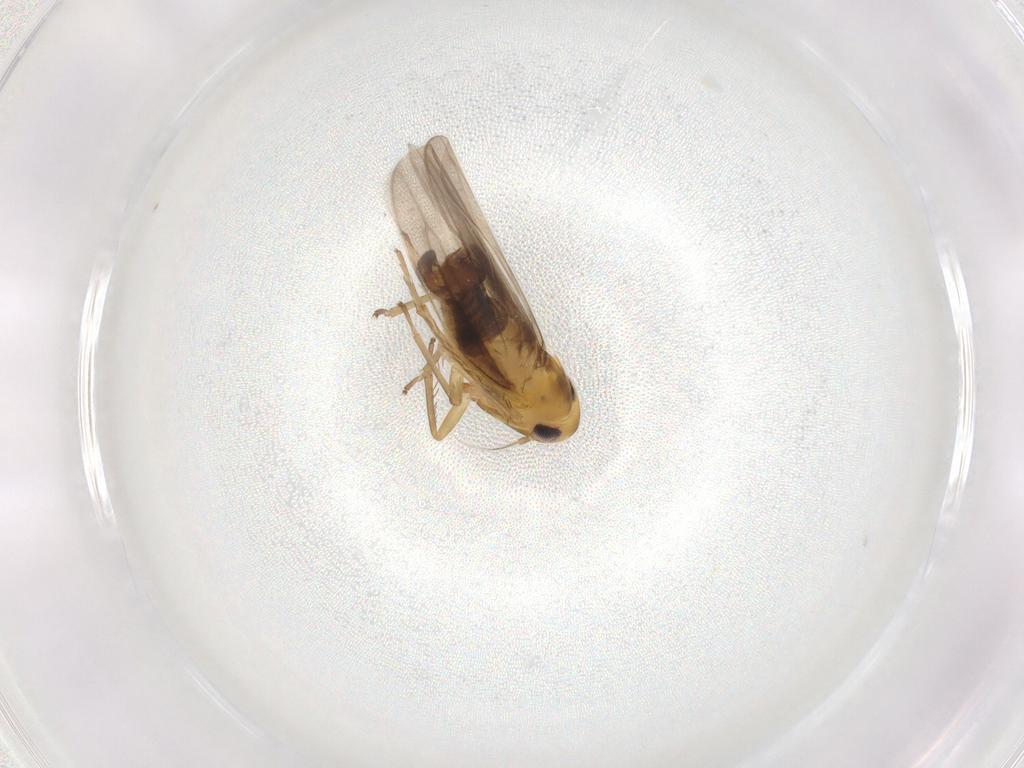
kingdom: Animalia
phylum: Arthropoda
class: Insecta
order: Hemiptera
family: Cicadellidae
